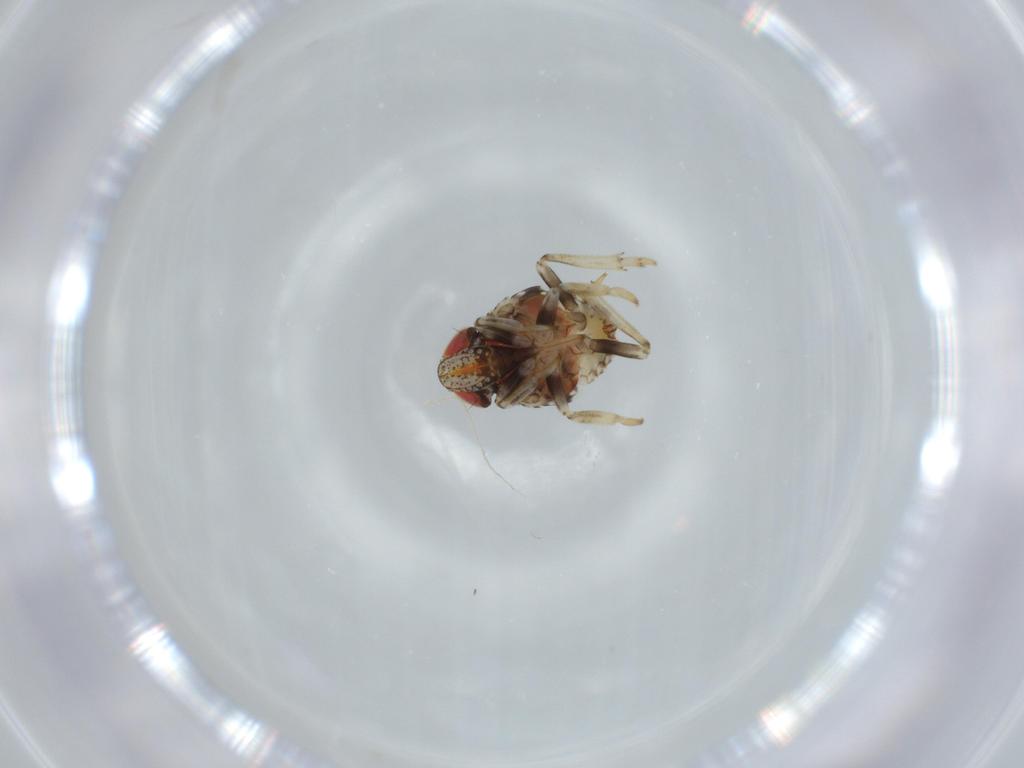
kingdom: Animalia
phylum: Arthropoda
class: Insecta
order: Hemiptera
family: Issidae
